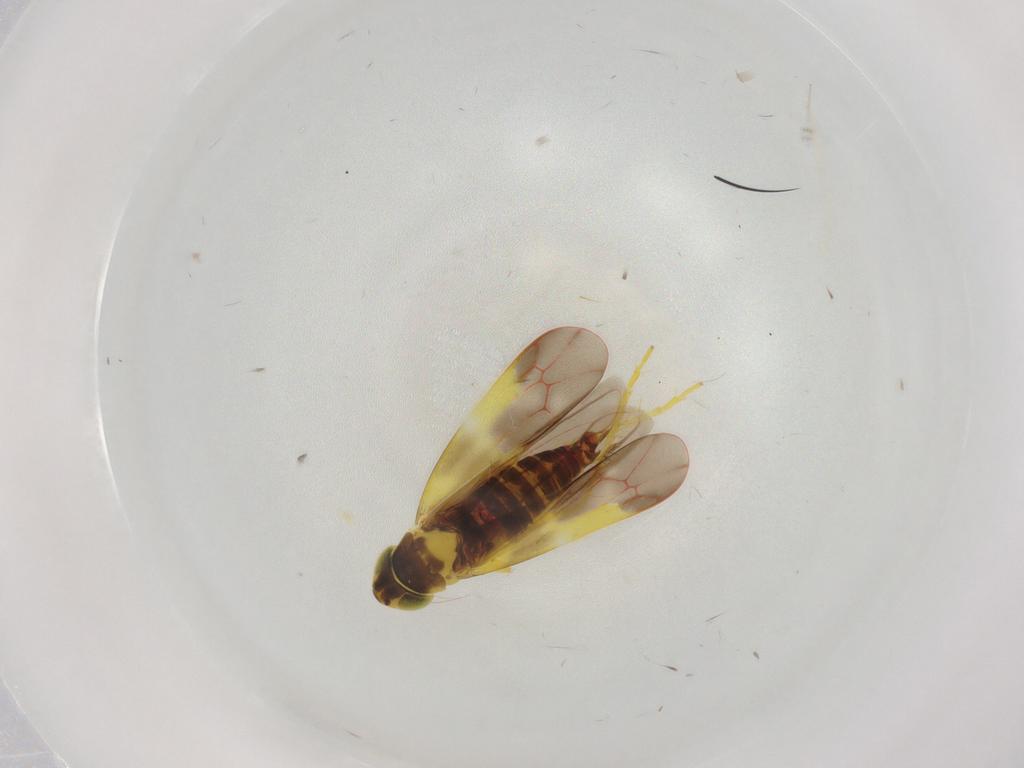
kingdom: Animalia
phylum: Arthropoda
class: Insecta
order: Hemiptera
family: Cicadellidae
